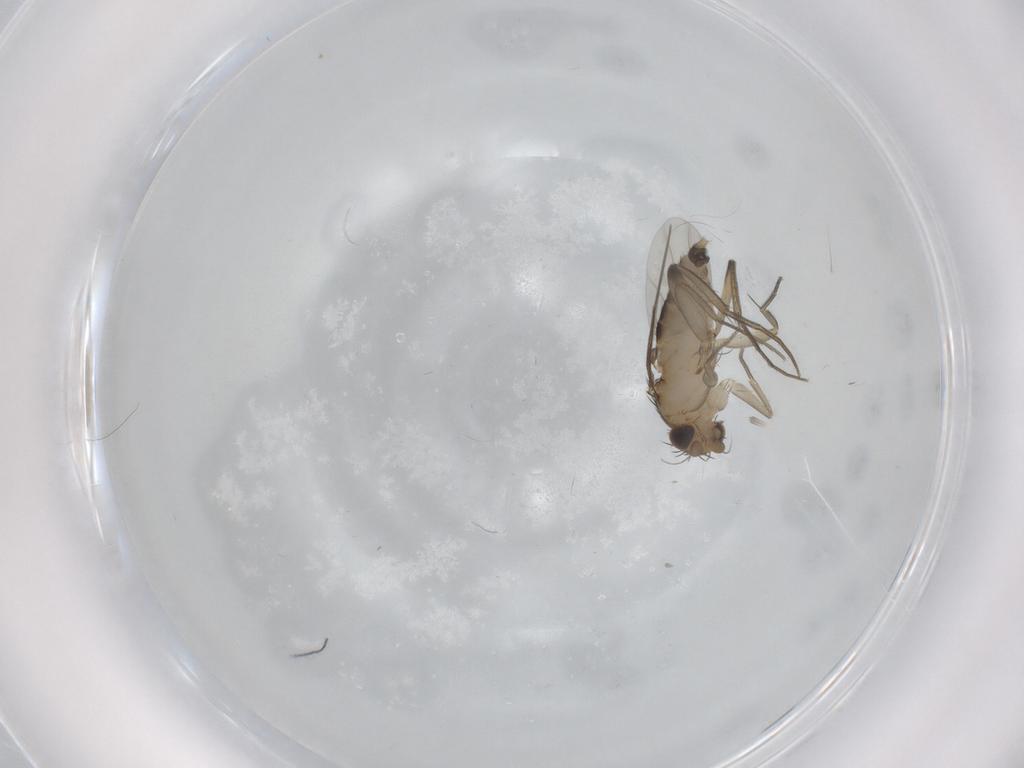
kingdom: Animalia
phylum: Arthropoda
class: Insecta
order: Diptera
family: Phoridae
